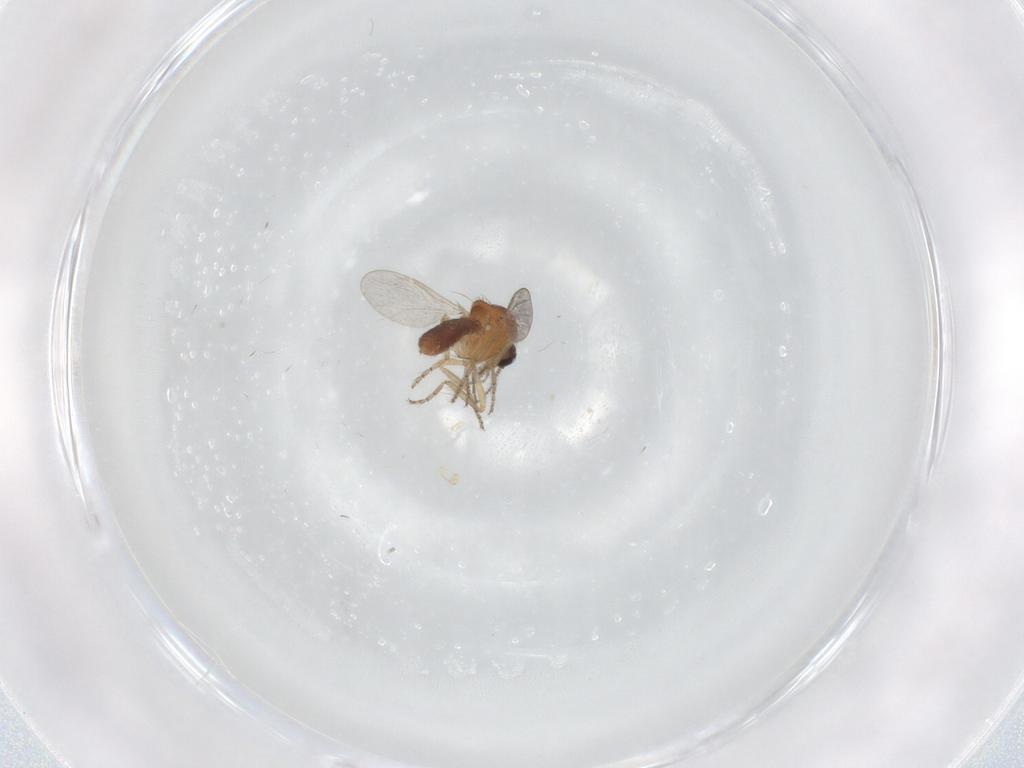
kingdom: Animalia
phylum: Arthropoda
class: Insecta
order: Diptera
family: Ceratopogonidae
